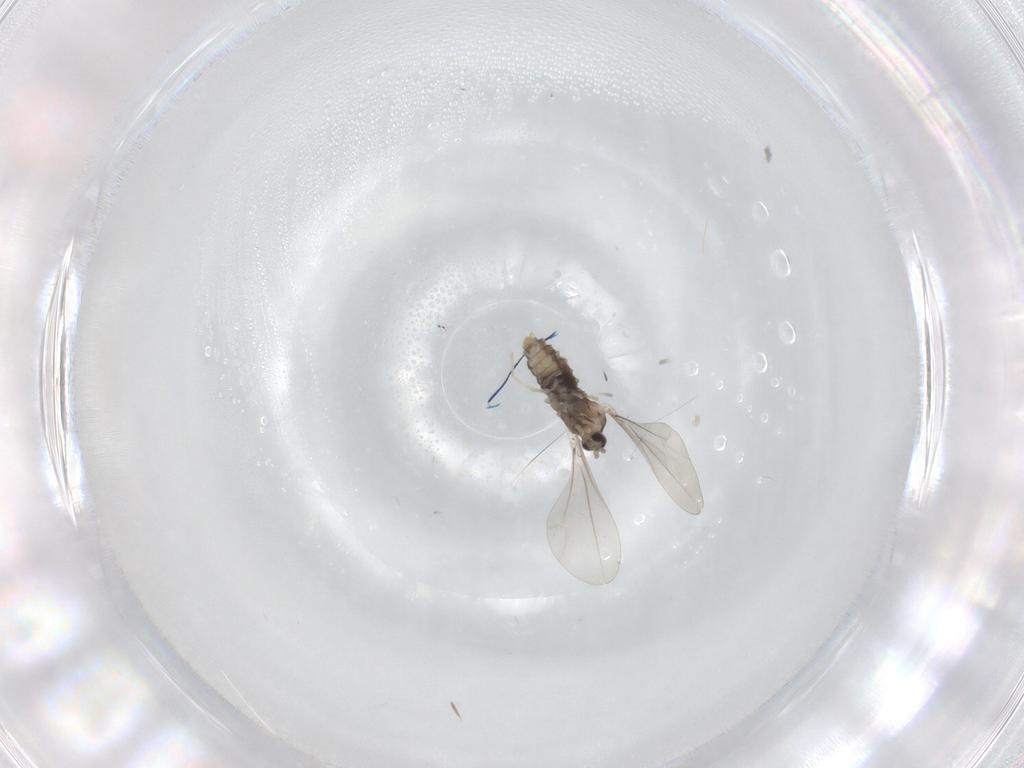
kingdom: Animalia
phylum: Arthropoda
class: Insecta
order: Diptera
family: Cecidomyiidae
